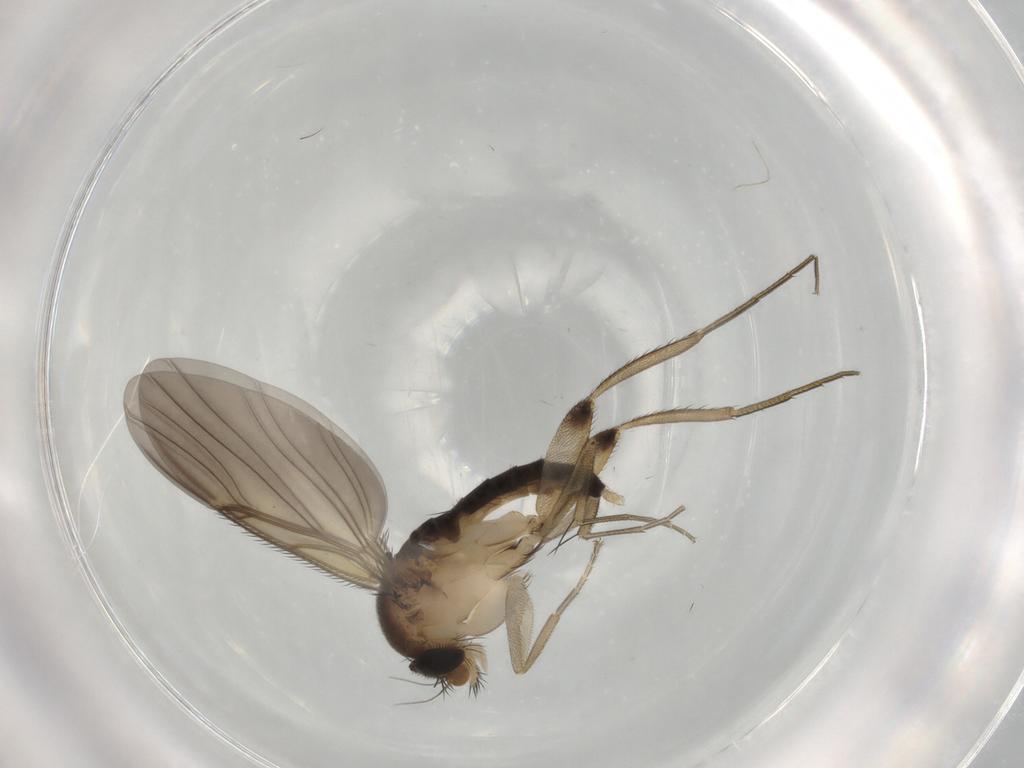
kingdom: Animalia
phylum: Arthropoda
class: Insecta
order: Diptera
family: Phoridae
